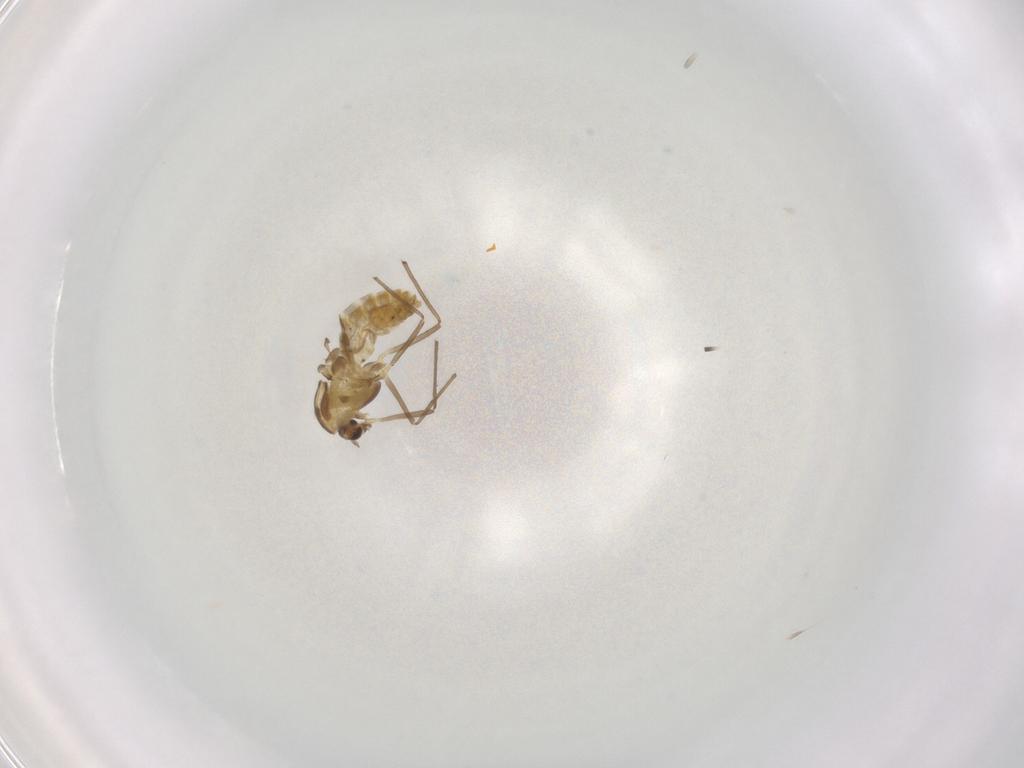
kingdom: Animalia
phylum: Arthropoda
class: Insecta
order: Diptera
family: Chironomidae
